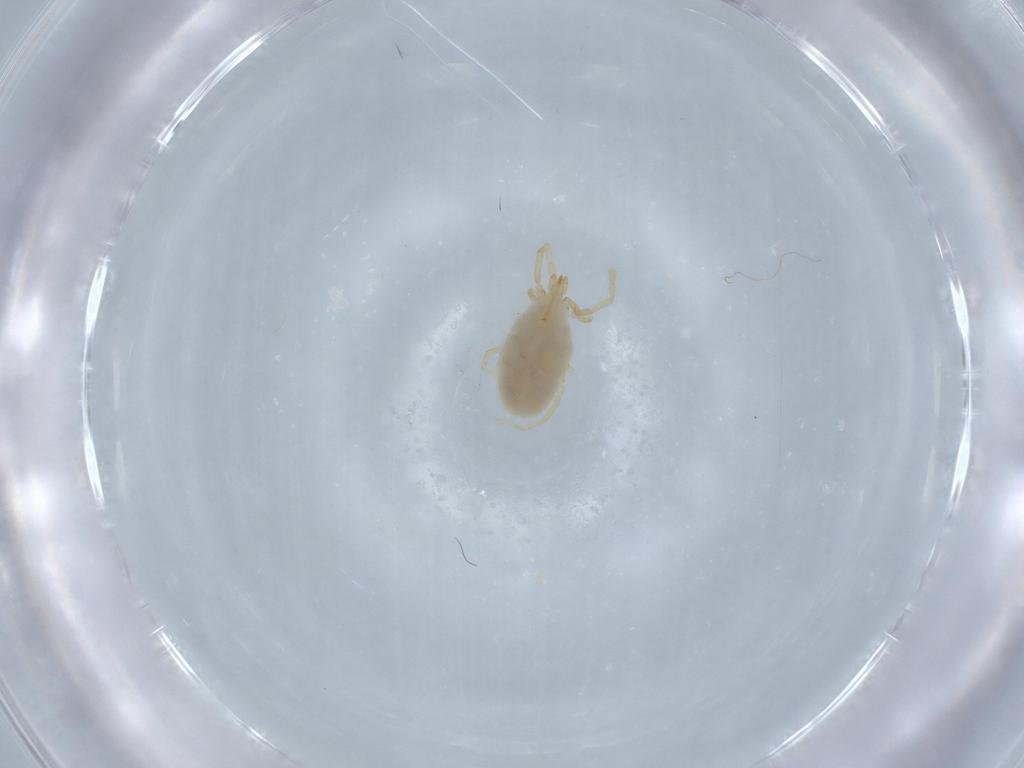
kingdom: Animalia
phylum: Arthropoda
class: Arachnida
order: Trombidiformes
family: Erythraeidae
